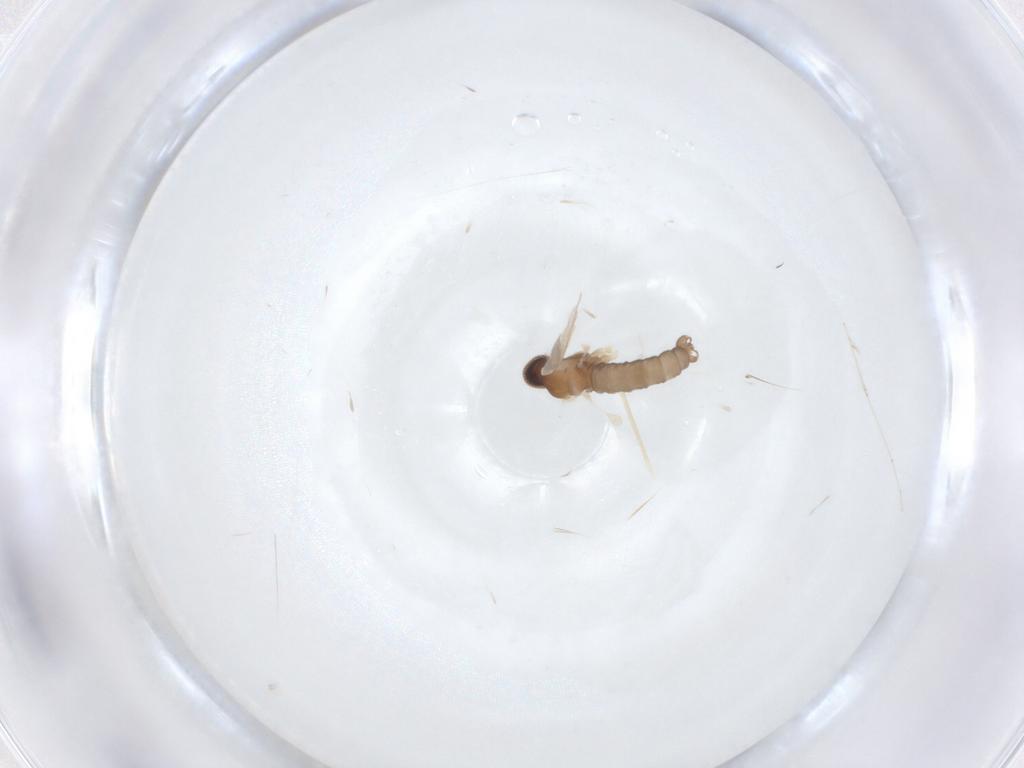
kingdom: Animalia
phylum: Arthropoda
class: Insecta
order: Diptera
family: Cecidomyiidae
